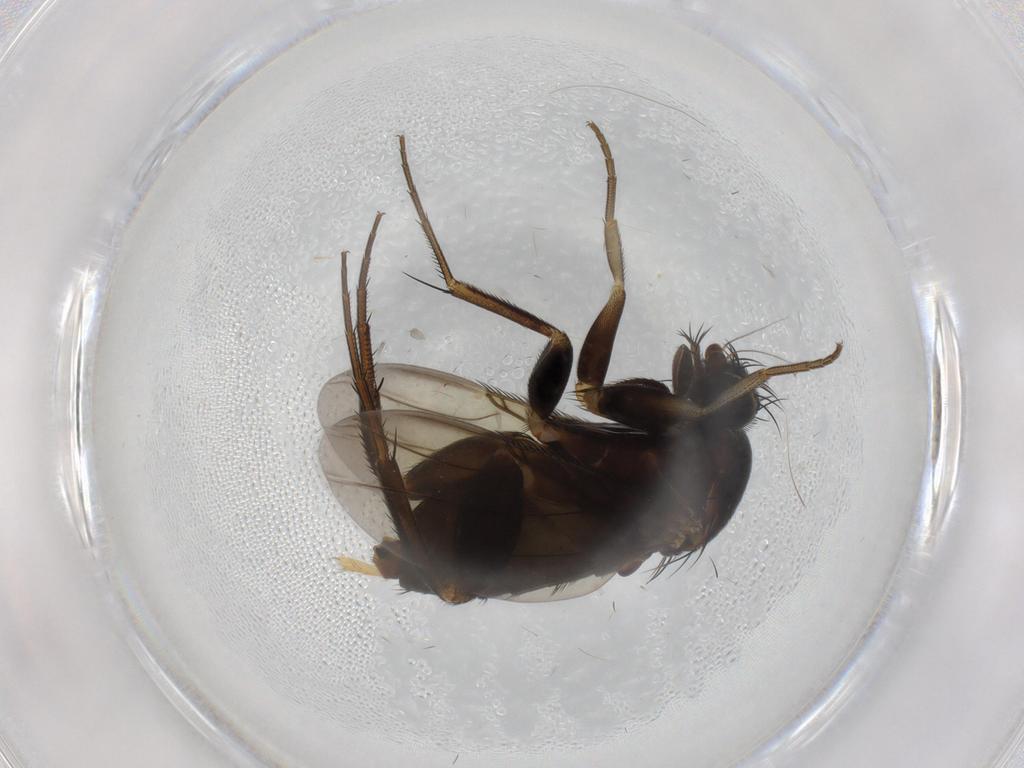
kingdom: Animalia
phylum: Arthropoda
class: Insecta
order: Diptera
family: Phoridae
